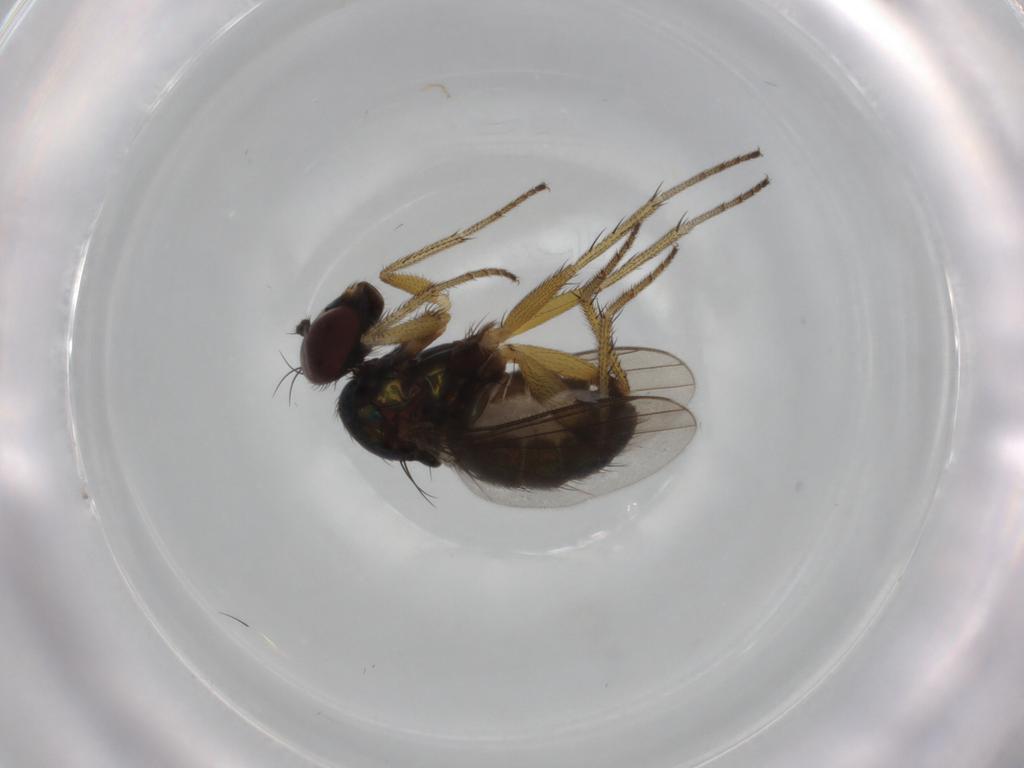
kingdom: Animalia
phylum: Arthropoda
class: Insecta
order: Diptera
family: Dolichopodidae
